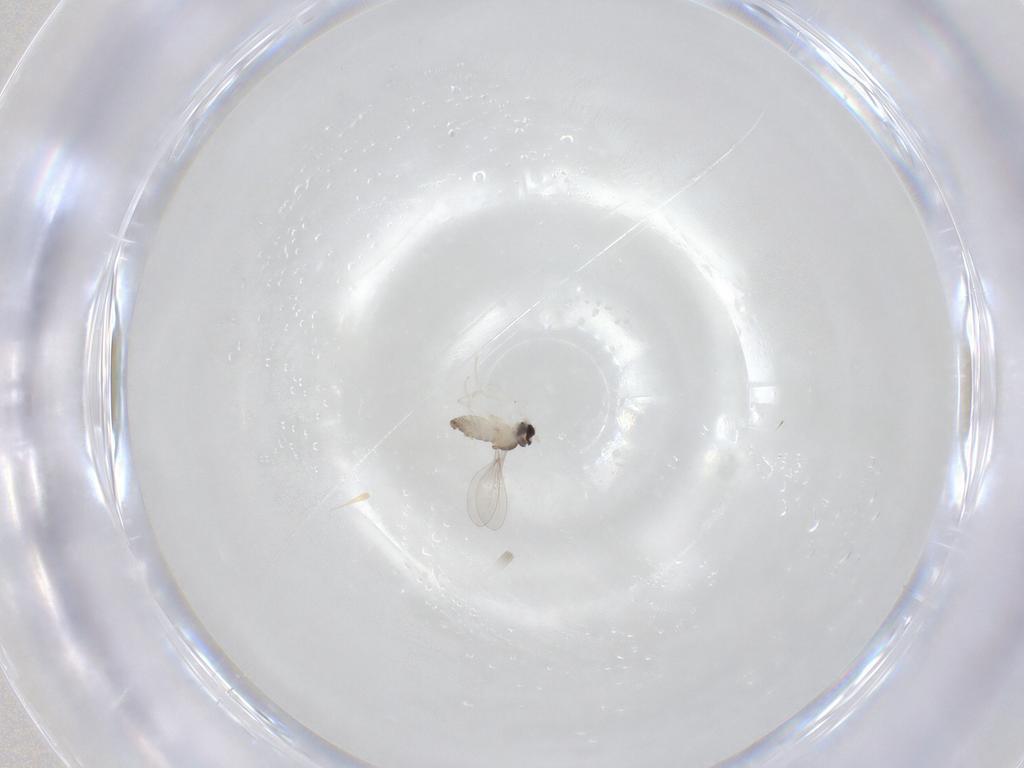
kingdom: Animalia
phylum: Arthropoda
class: Insecta
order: Diptera
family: Cecidomyiidae
